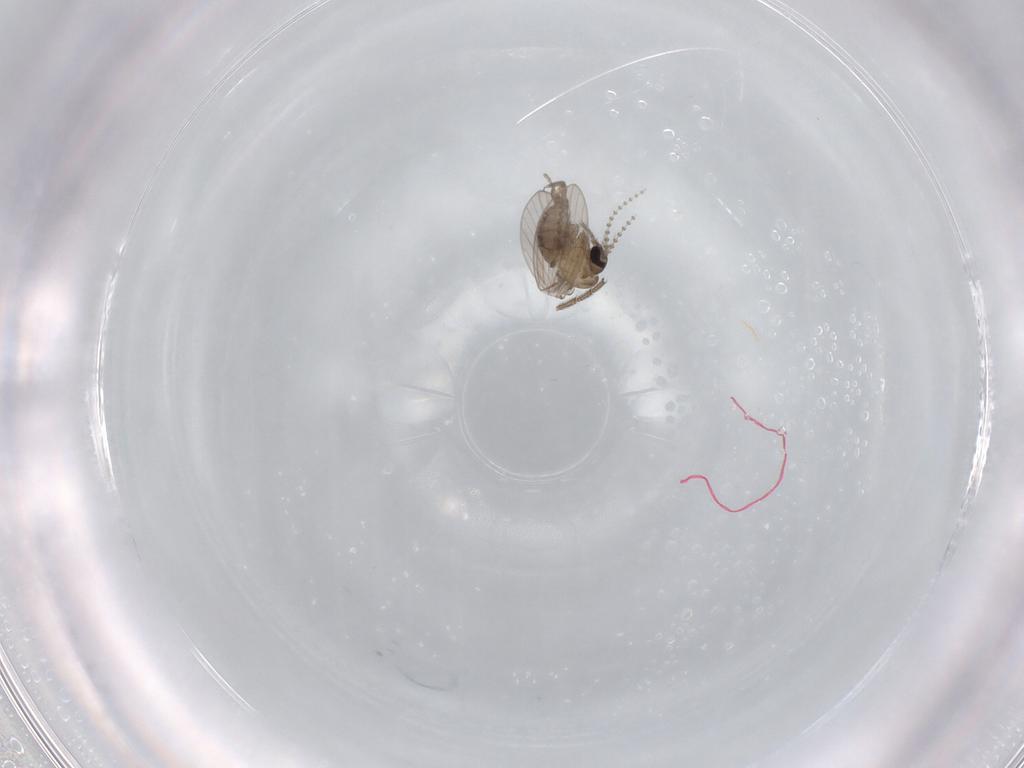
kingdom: Animalia
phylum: Arthropoda
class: Insecta
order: Diptera
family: Psychodidae
